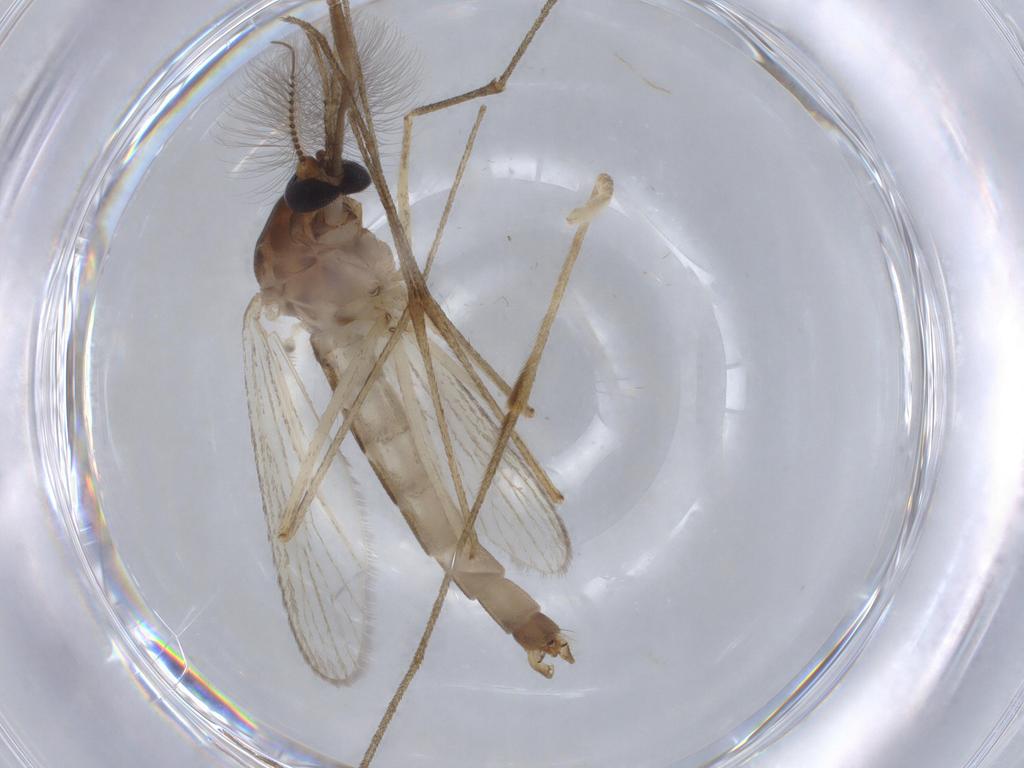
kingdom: Animalia
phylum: Arthropoda
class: Insecta
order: Diptera
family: Culicidae
